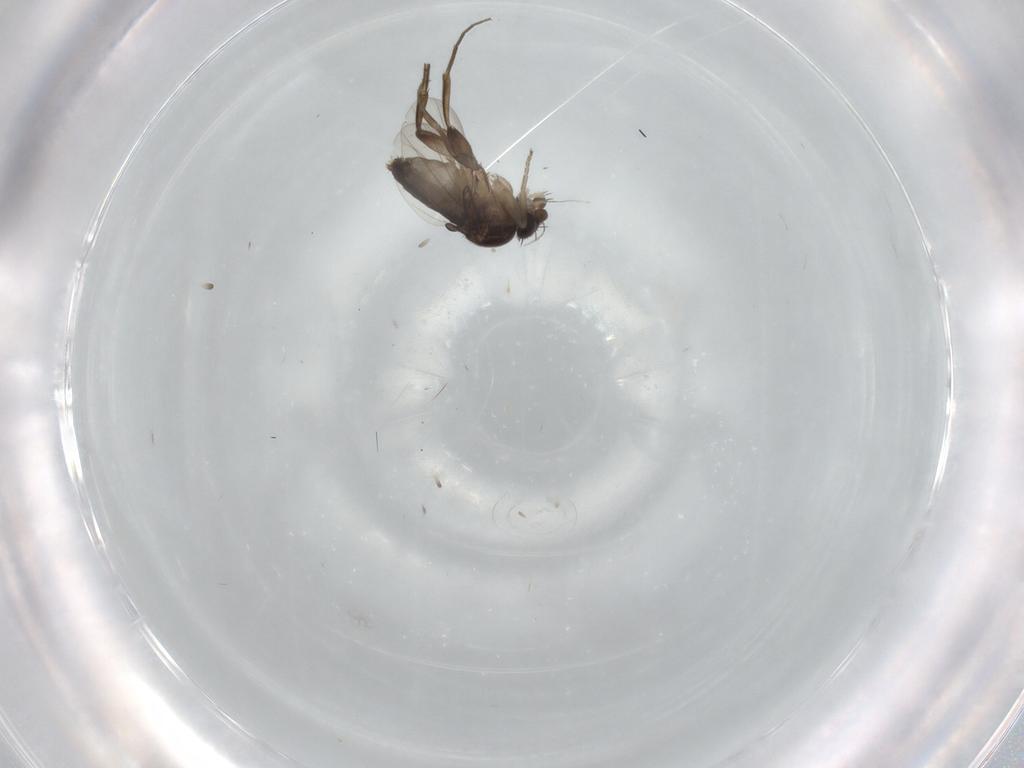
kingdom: Animalia
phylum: Arthropoda
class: Insecta
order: Diptera
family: Phoridae
